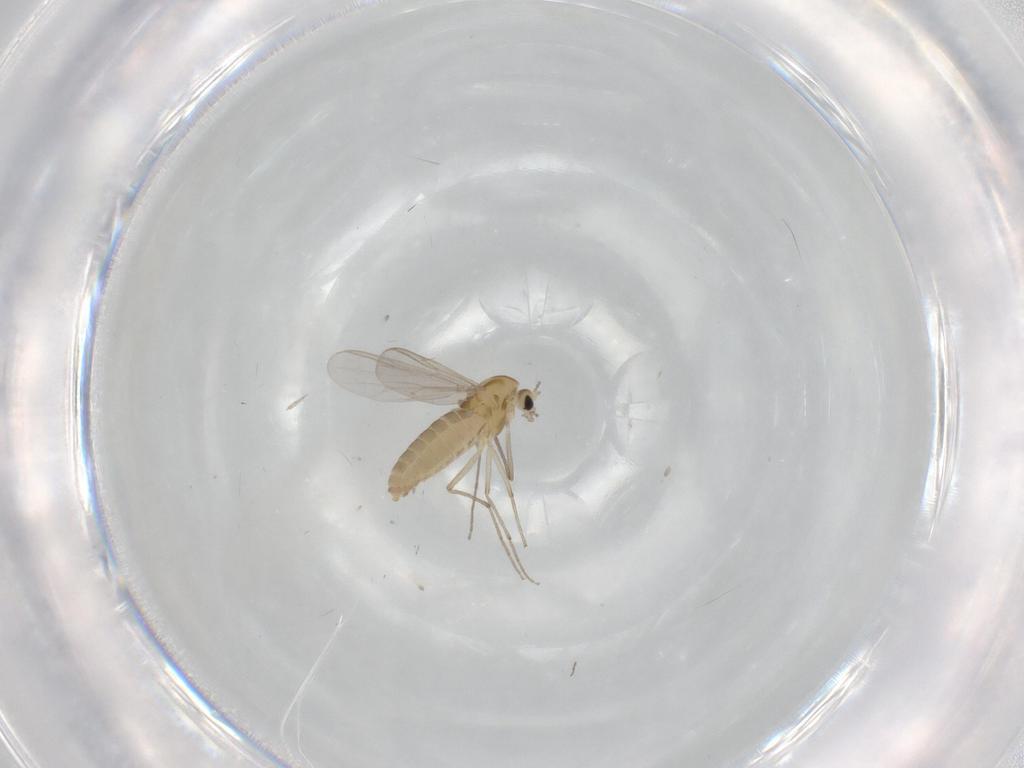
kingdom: Animalia
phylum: Arthropoda
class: Insecta
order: Diptera
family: Chironomidae
